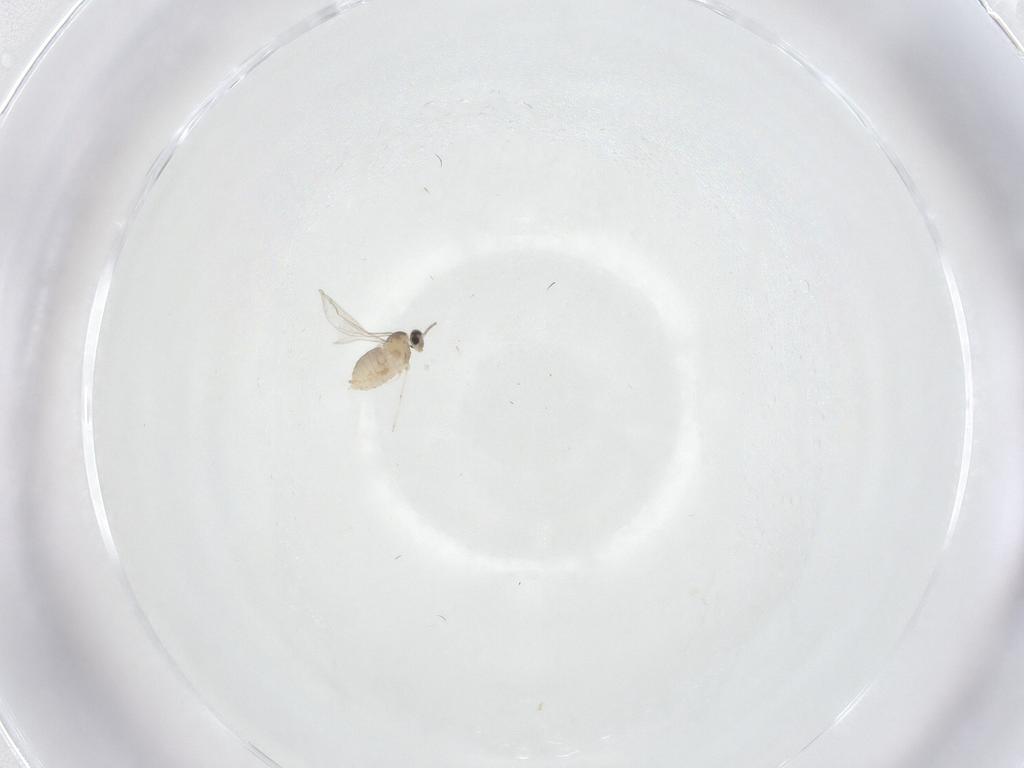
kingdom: Animalia
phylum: Arthropoda
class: Insecta
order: Diptera
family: Cecidomyiidae
